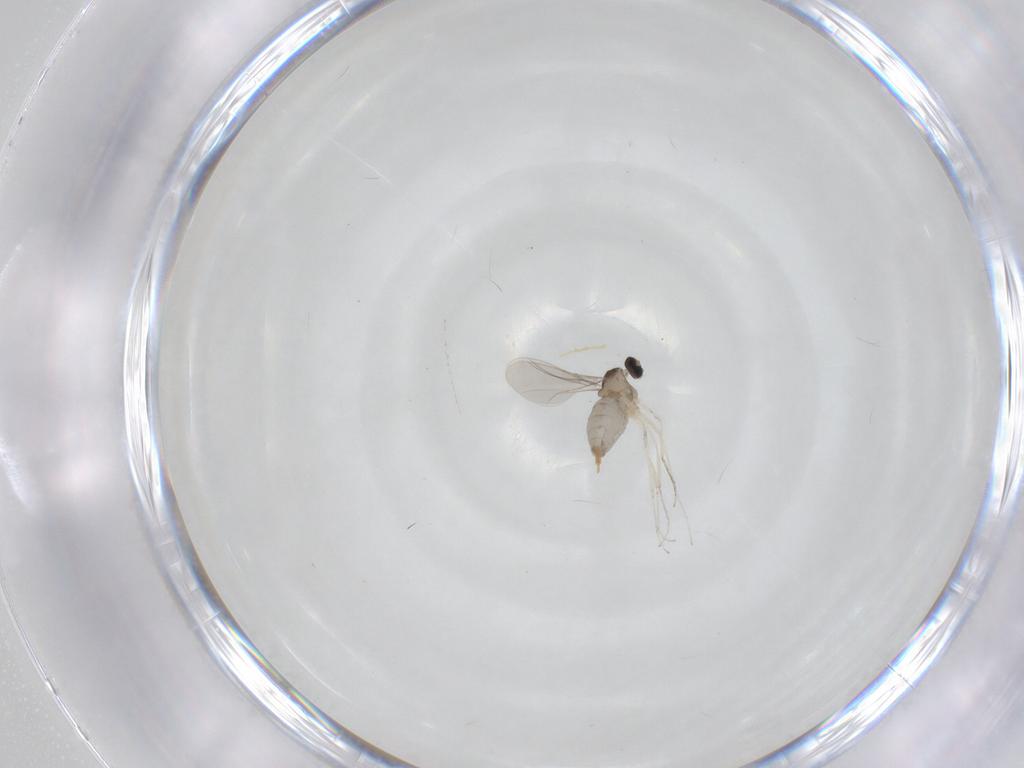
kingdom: Animalia
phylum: Arthropoda
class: Insecta
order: Diptera
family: Cecidomyiidae
